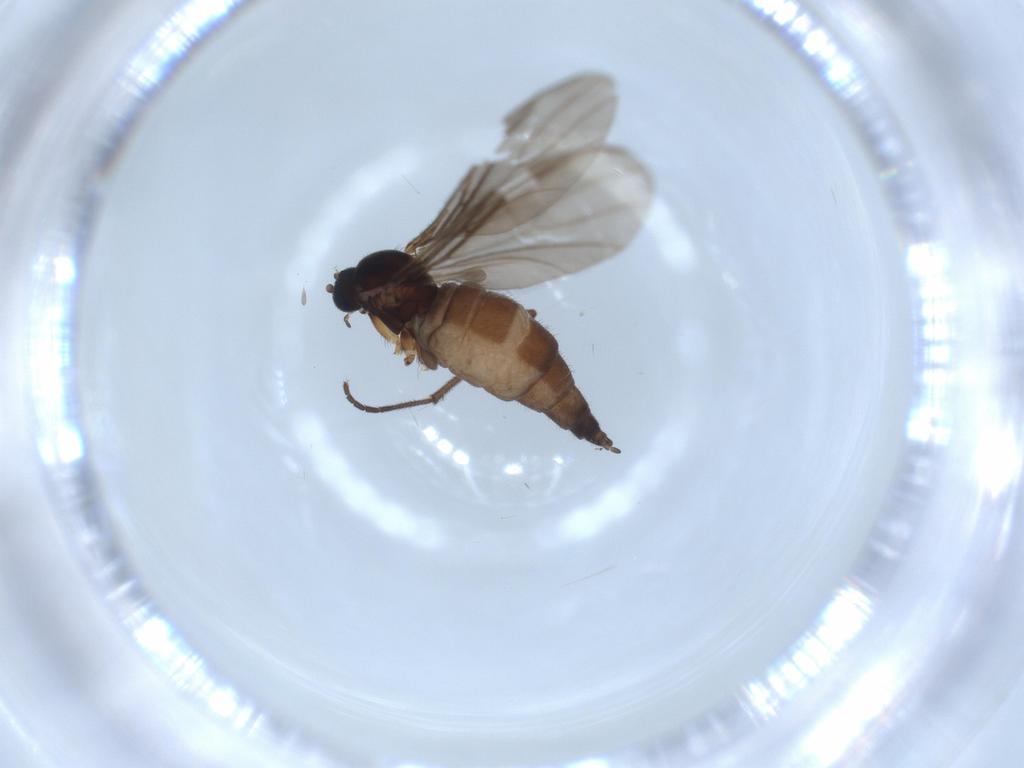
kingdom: Animalia
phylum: Arthropoda
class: Insecta
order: Diptera
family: Sciaridae
